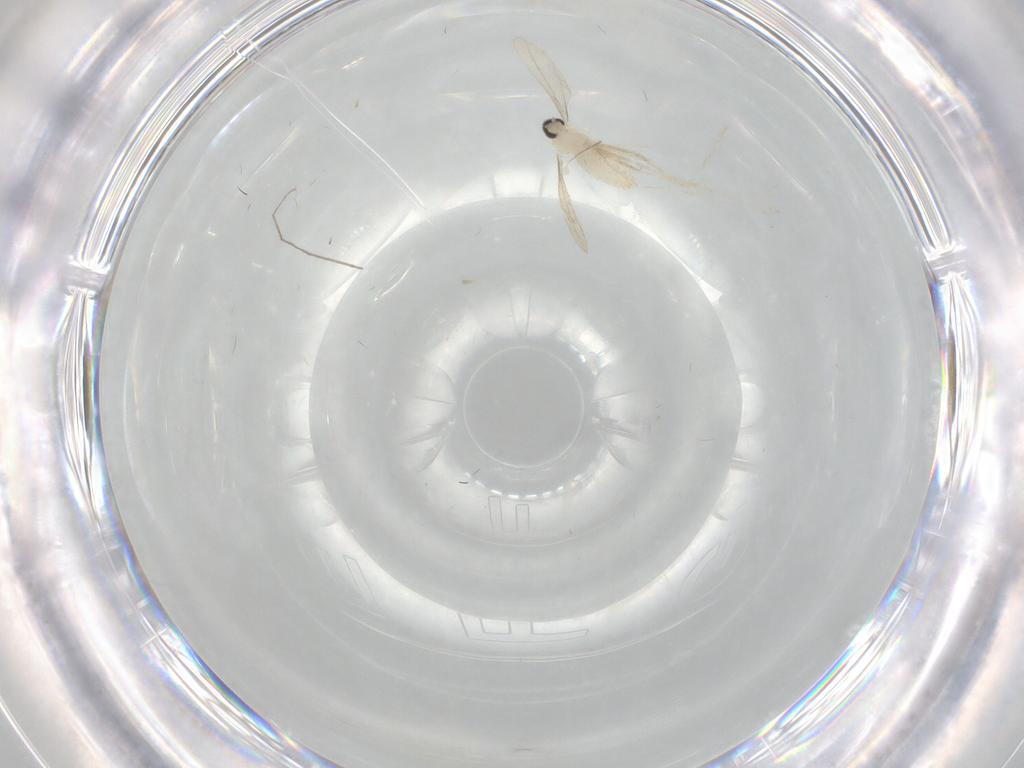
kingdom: Animalia
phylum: Arthropoda
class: Insecta
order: Diptera
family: Cecidomyiidae
